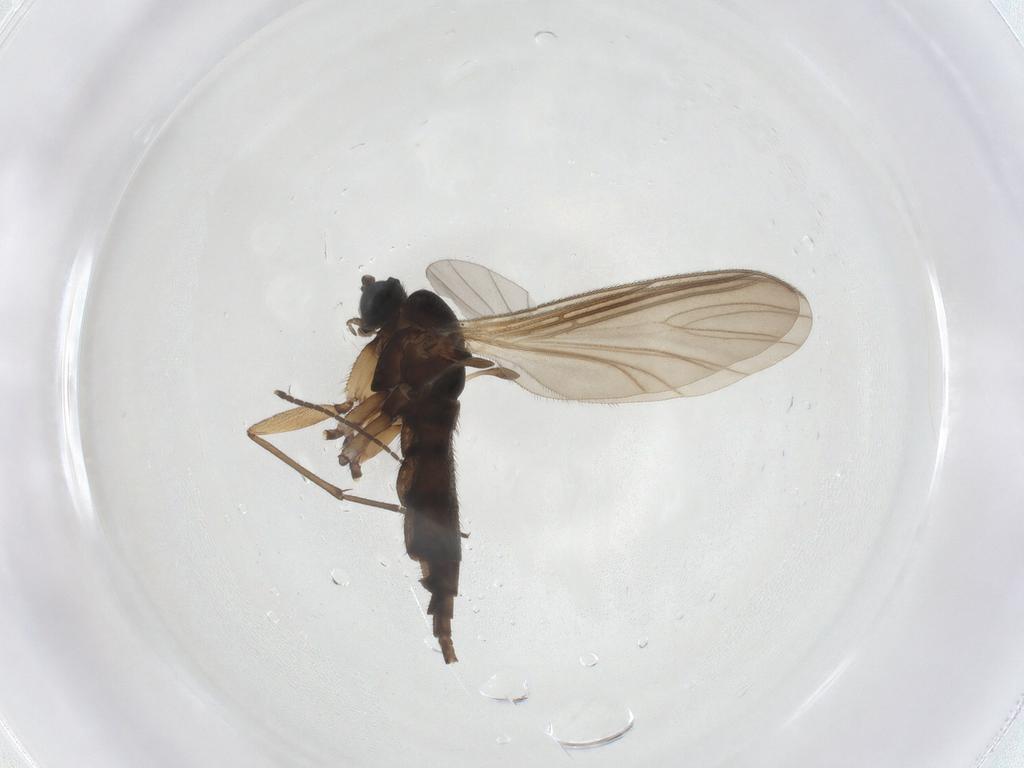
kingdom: Animalia
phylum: Arthropoda
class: Insecta
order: Diptera
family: Sciaridae
